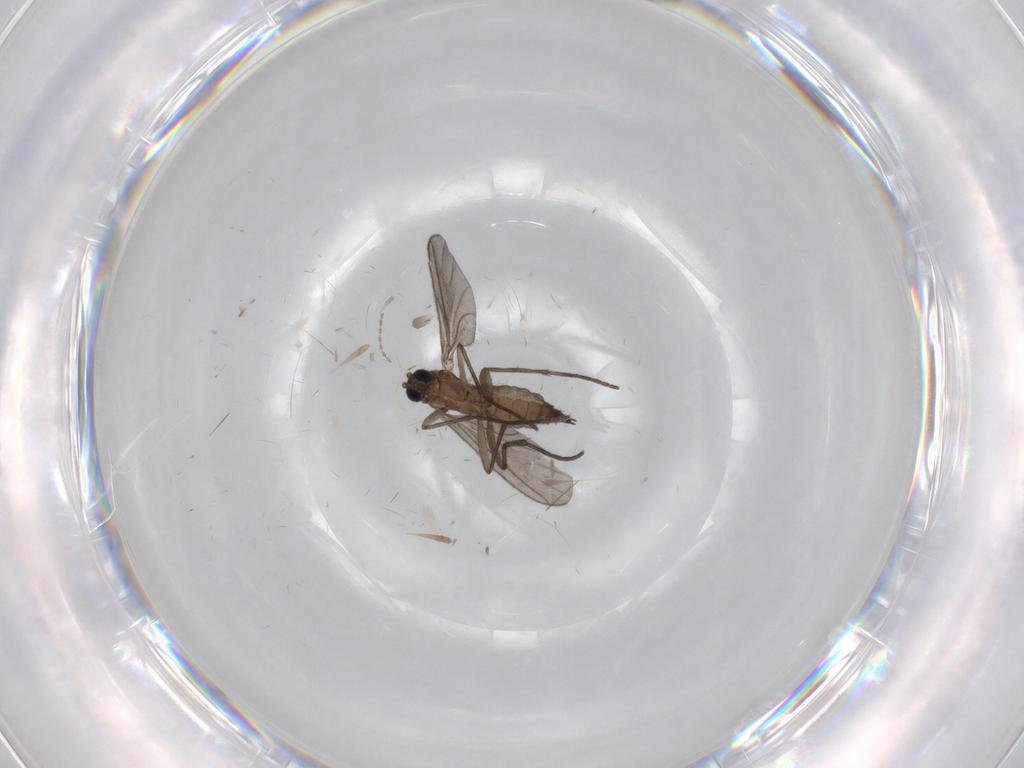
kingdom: Animalia
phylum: Arthropoda
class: Insecta
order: Diptera
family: Sciaridae
